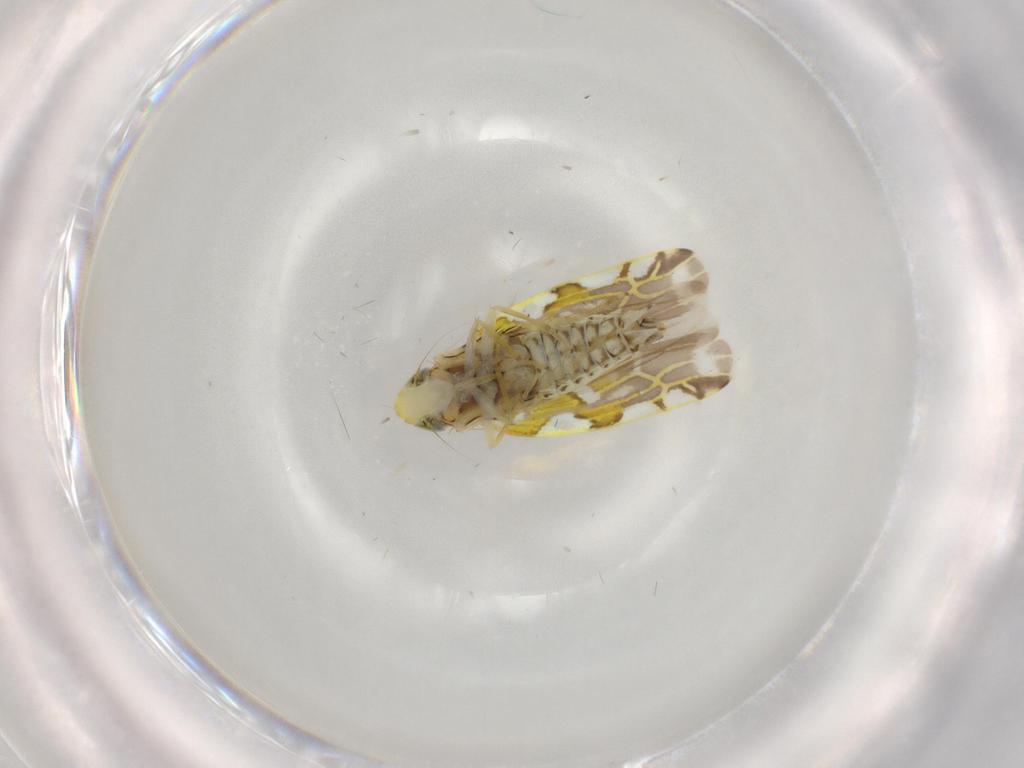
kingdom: Animalia
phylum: Arthropoda
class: Insecta
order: Hemiptera
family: Cicadellidae
